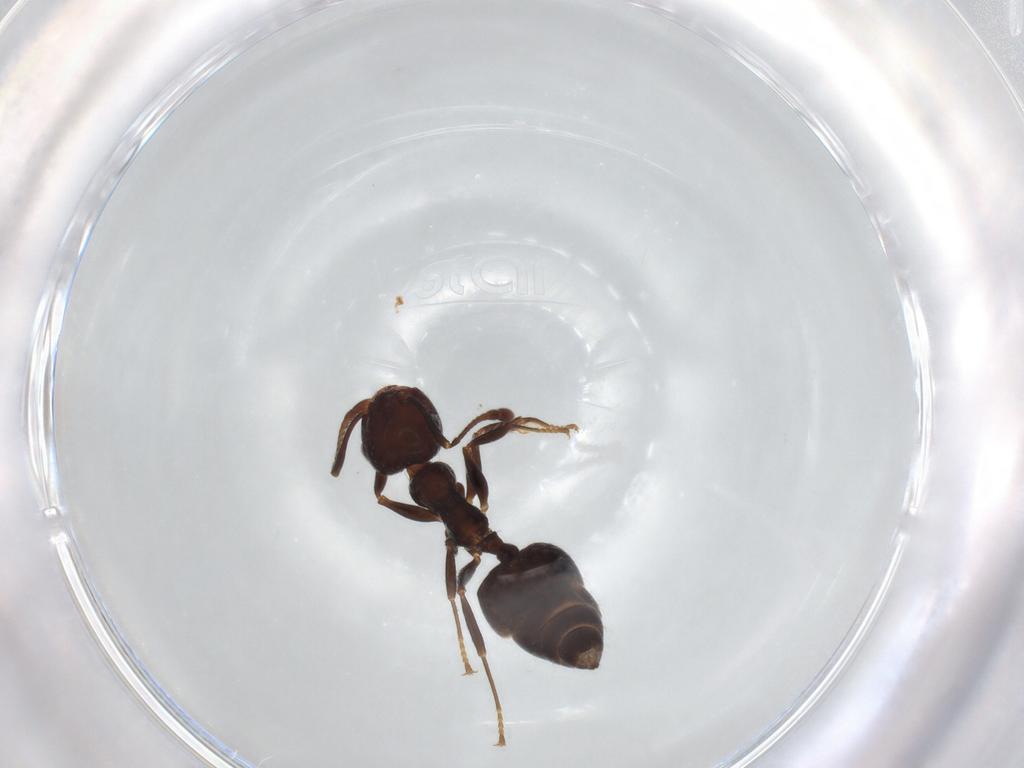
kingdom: Animalia
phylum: Arthropoda
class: Insecta
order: Hymenoptera
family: Formicidae
